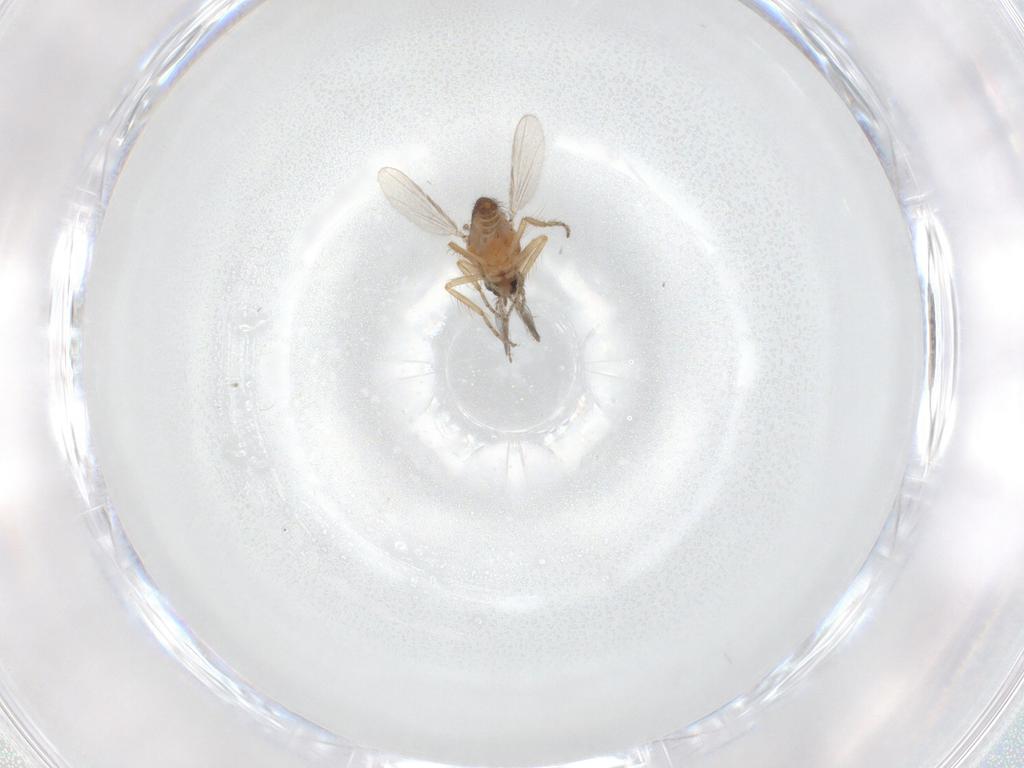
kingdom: Animalia
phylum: Arthropoda
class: Insecta
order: Diptera
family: Ceratopogonidae
